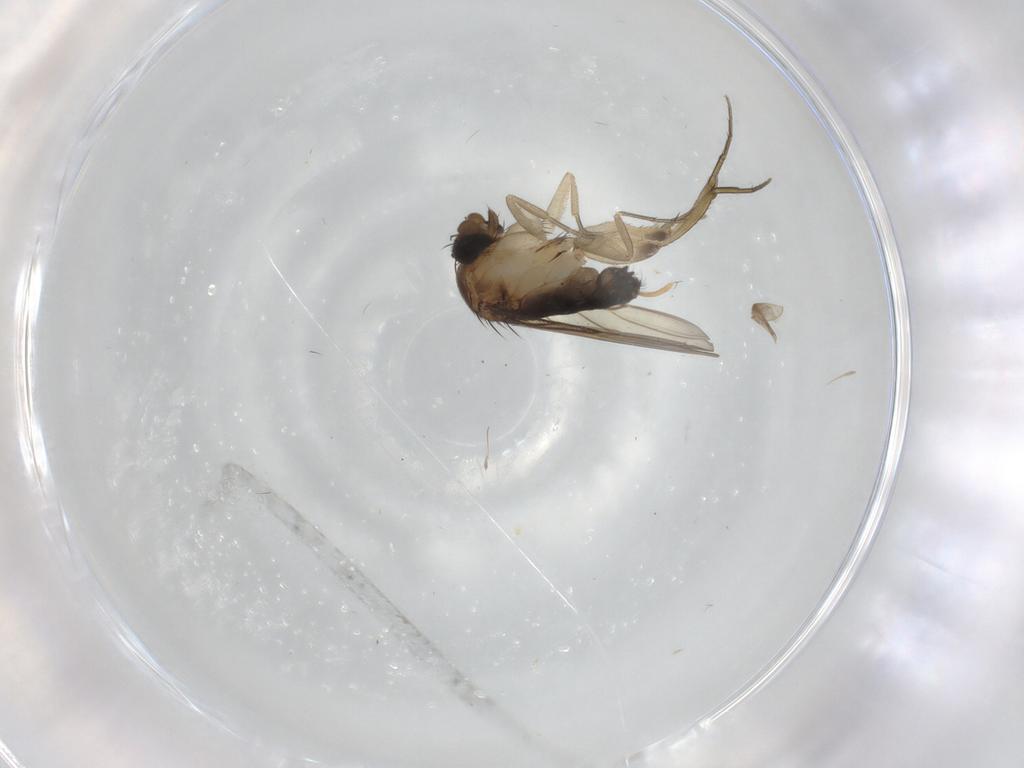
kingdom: Animalia
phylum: Arthropoda
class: Insecta
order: Diptera
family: Phoridae
